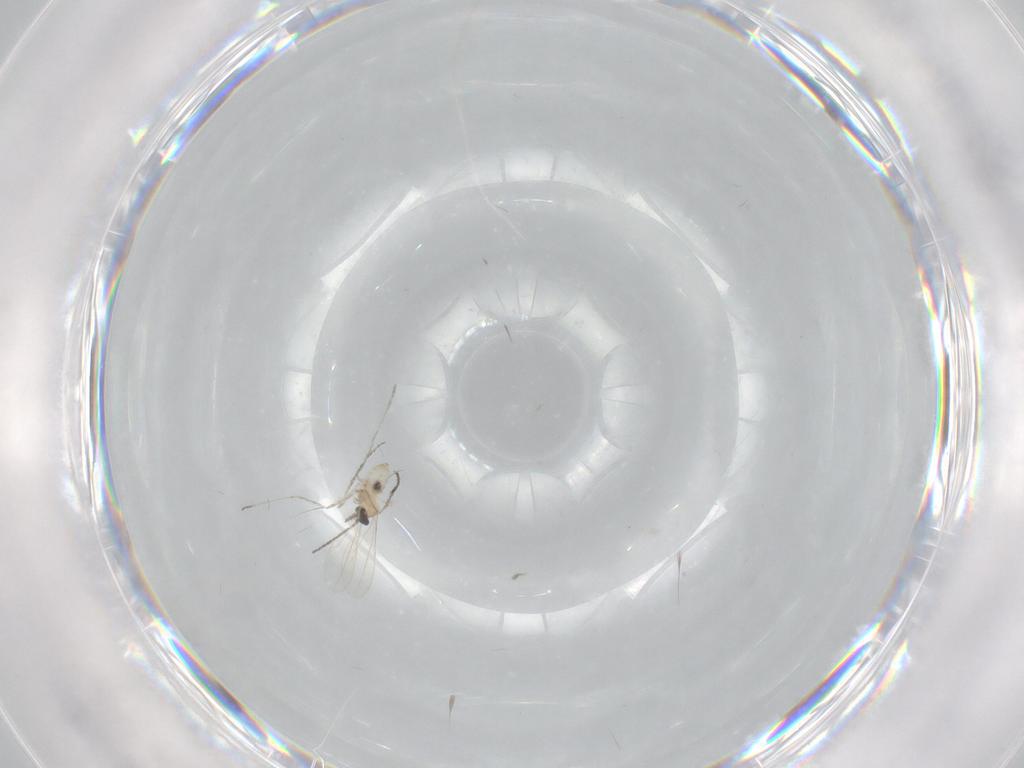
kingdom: Animalia
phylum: Arthropoda
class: Insecta
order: Diptera
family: Cecidomyiidae
